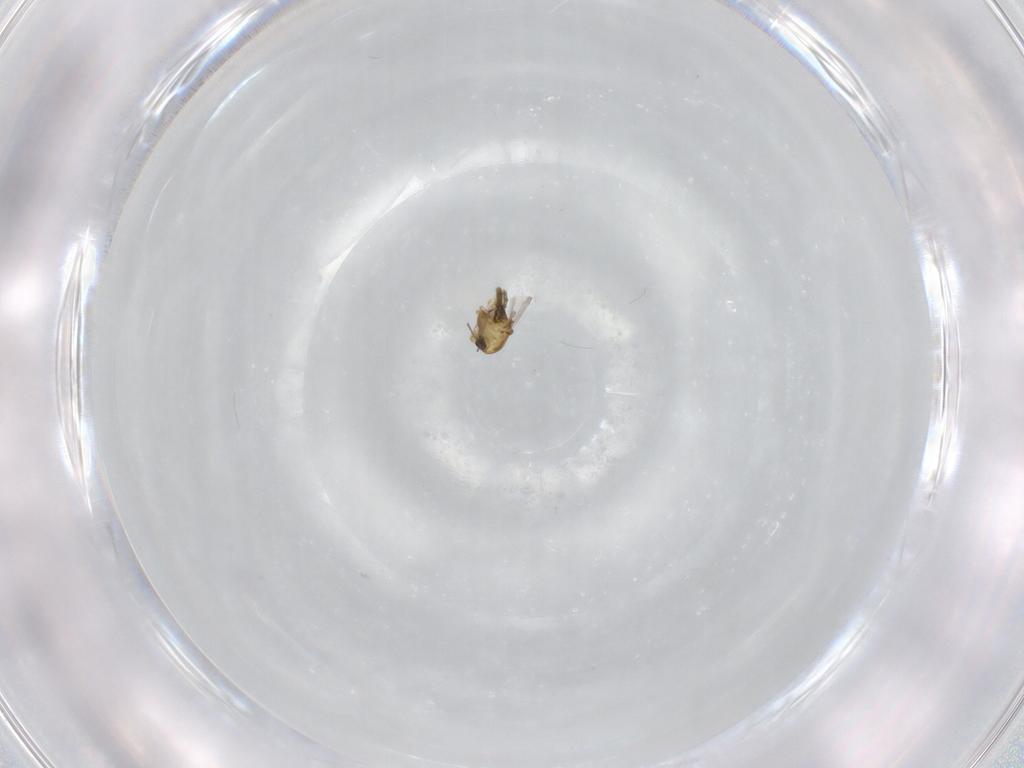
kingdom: Animalia
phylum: Arthropoda
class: Insecta
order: Diptera
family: Chironomidae
